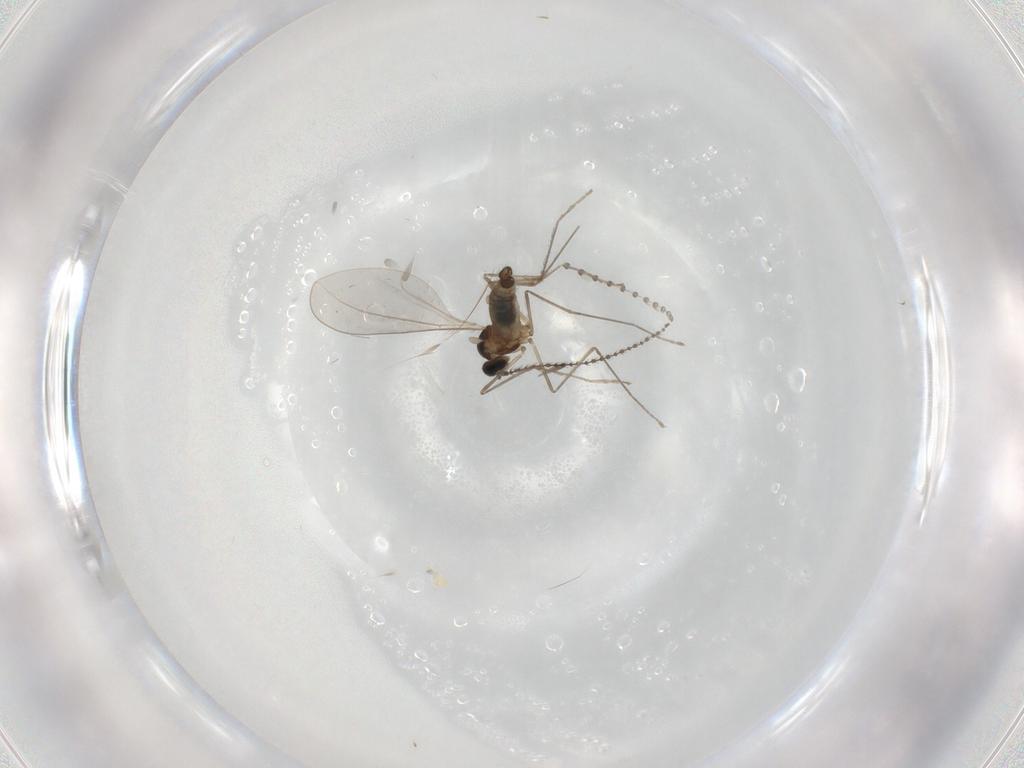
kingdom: Animalia
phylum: Arthropoda
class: Insecta
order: Diptera
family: Cecidomyiidae
